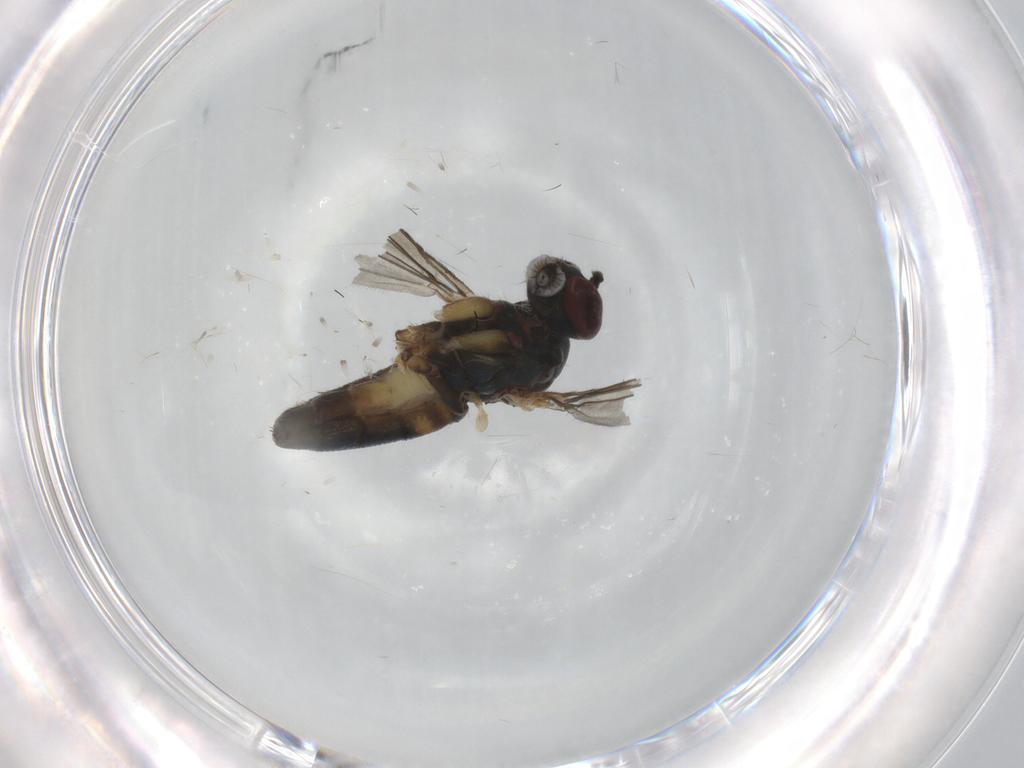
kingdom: Animalia
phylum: Arthropoda
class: Insecta
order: Diptera
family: Dolichopodidae
